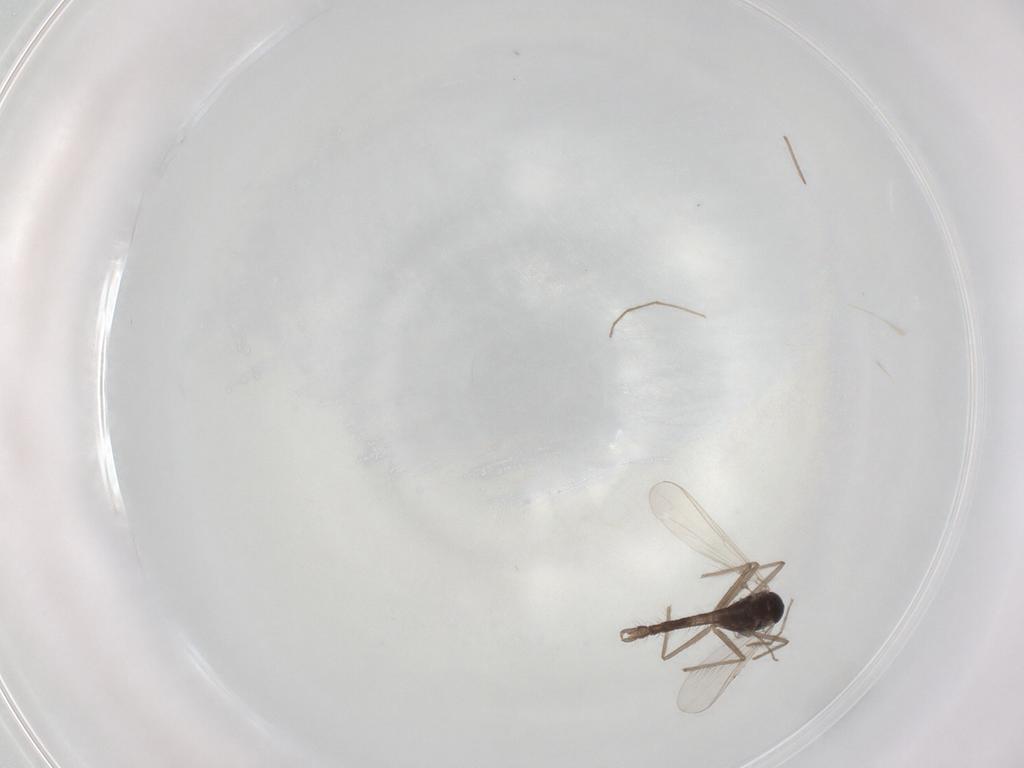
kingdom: Animalia
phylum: Arthropoda
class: Insecta
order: Diptera
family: Chironomidae
